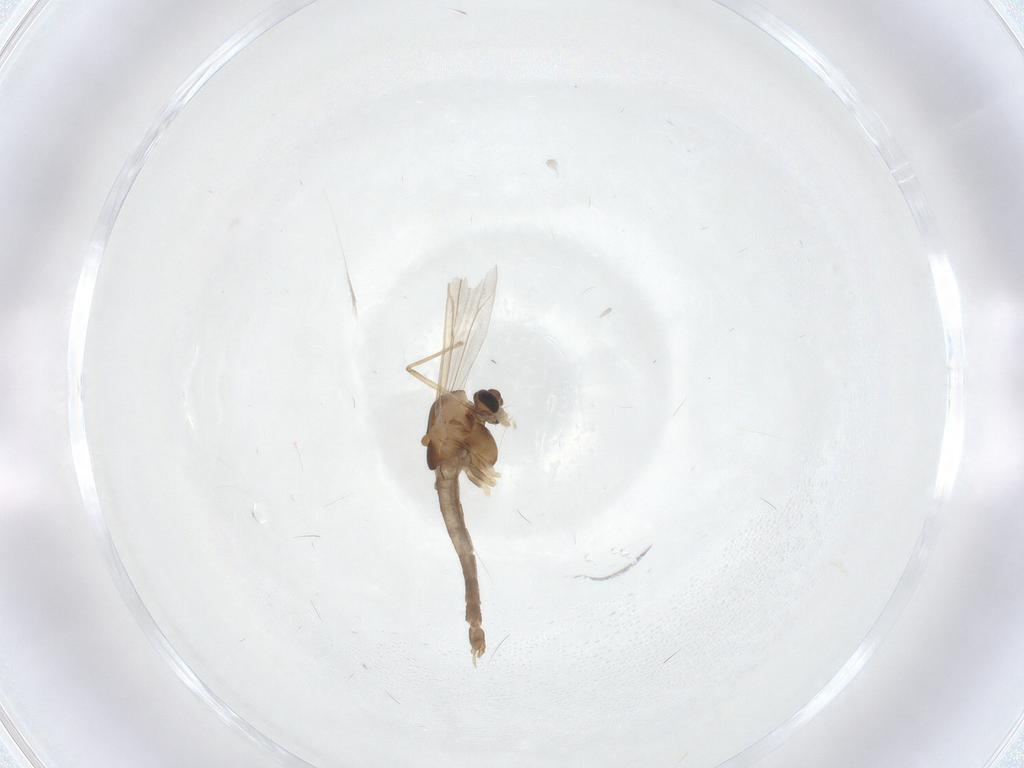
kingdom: Animalia
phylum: Arthropoda
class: Insecta
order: Diptera
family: Chironomidae
